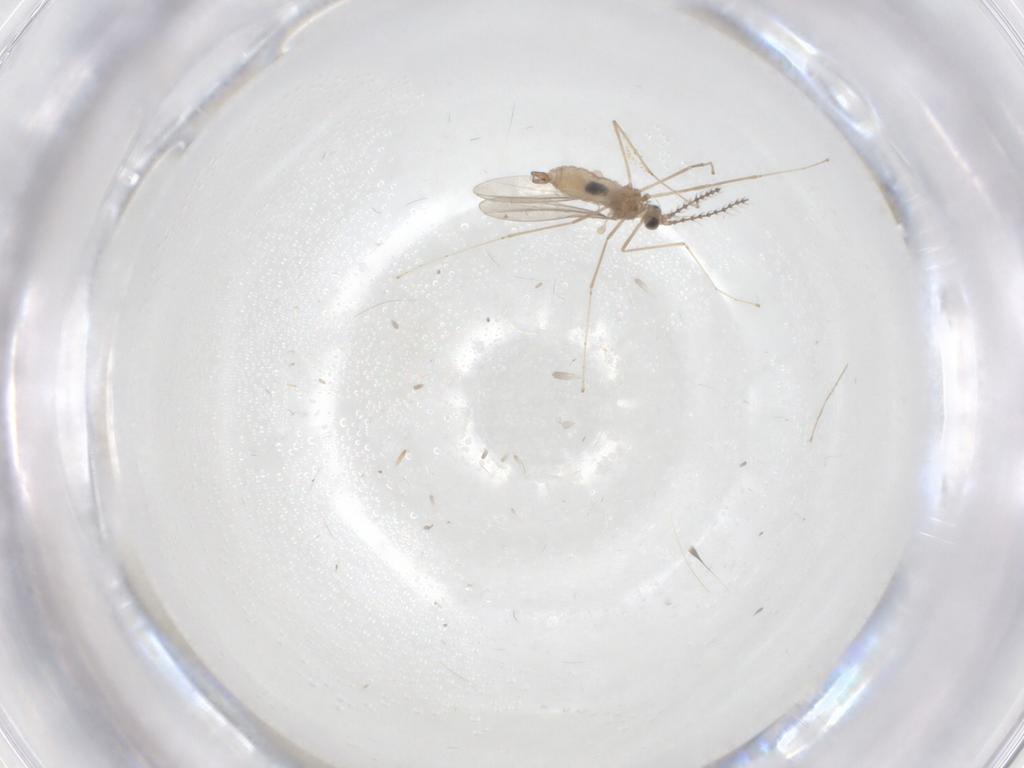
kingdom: Animalia
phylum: Arthropoda
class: Insecta
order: Diptera
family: Cecidomyiidae
